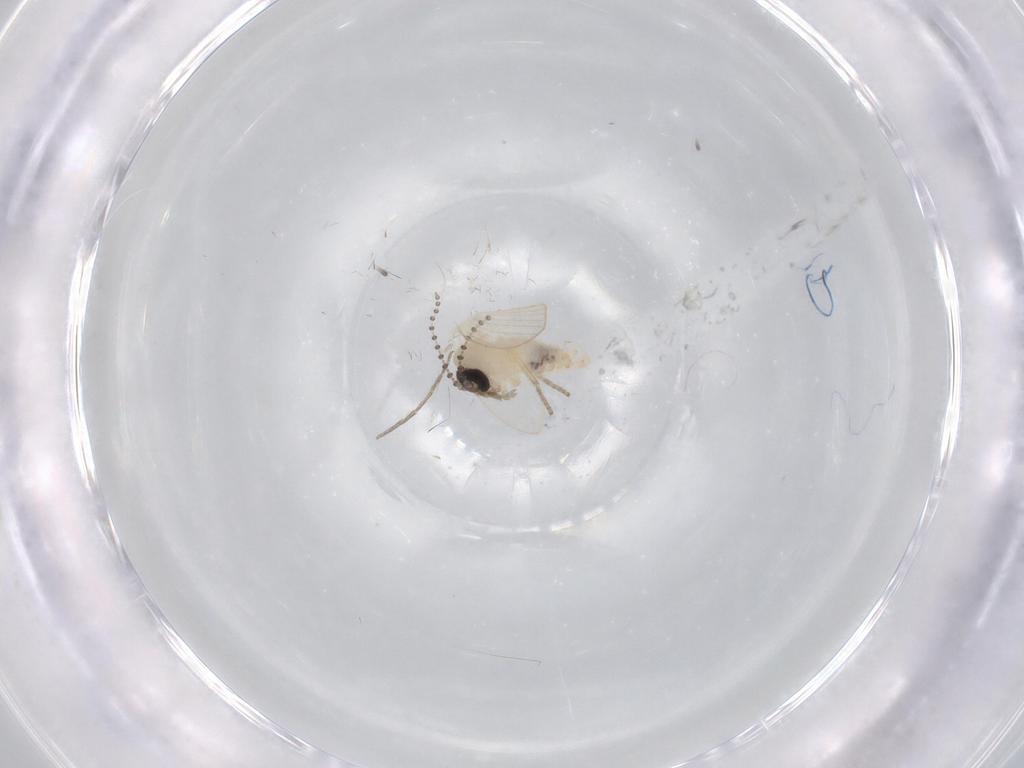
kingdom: Animalia
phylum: Arthropoda
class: Insecta
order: Diptera
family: Psychodidae
